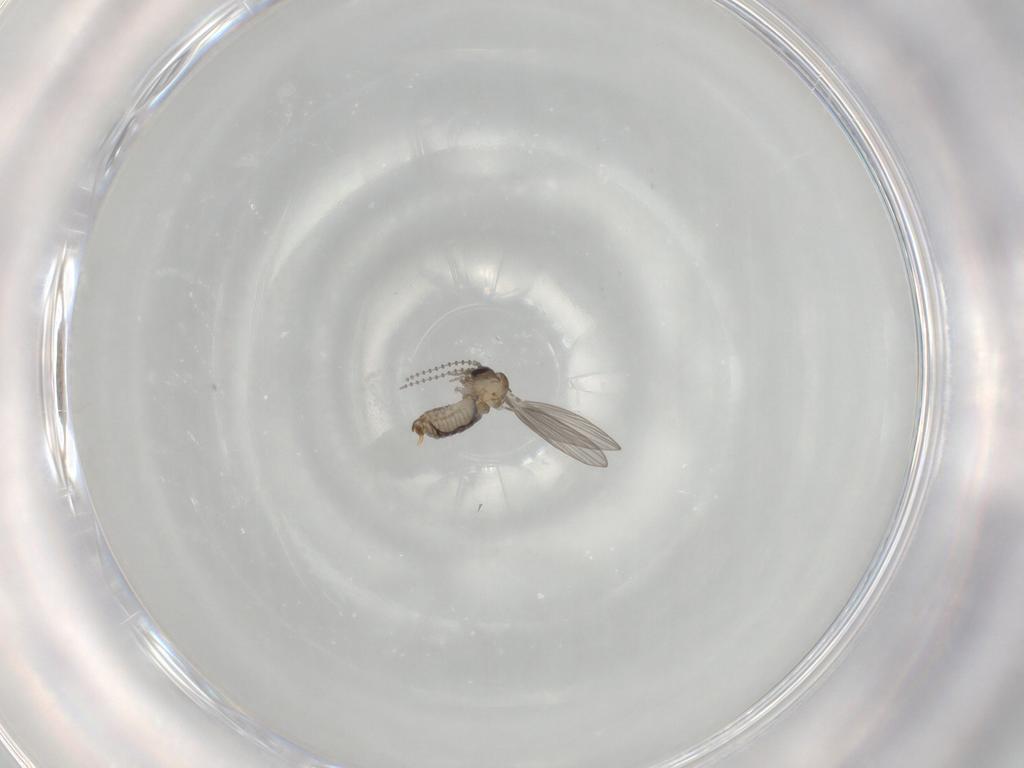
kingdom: Animalia
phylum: Arthropoda
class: Insecta
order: Diptera
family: Psychodidae
